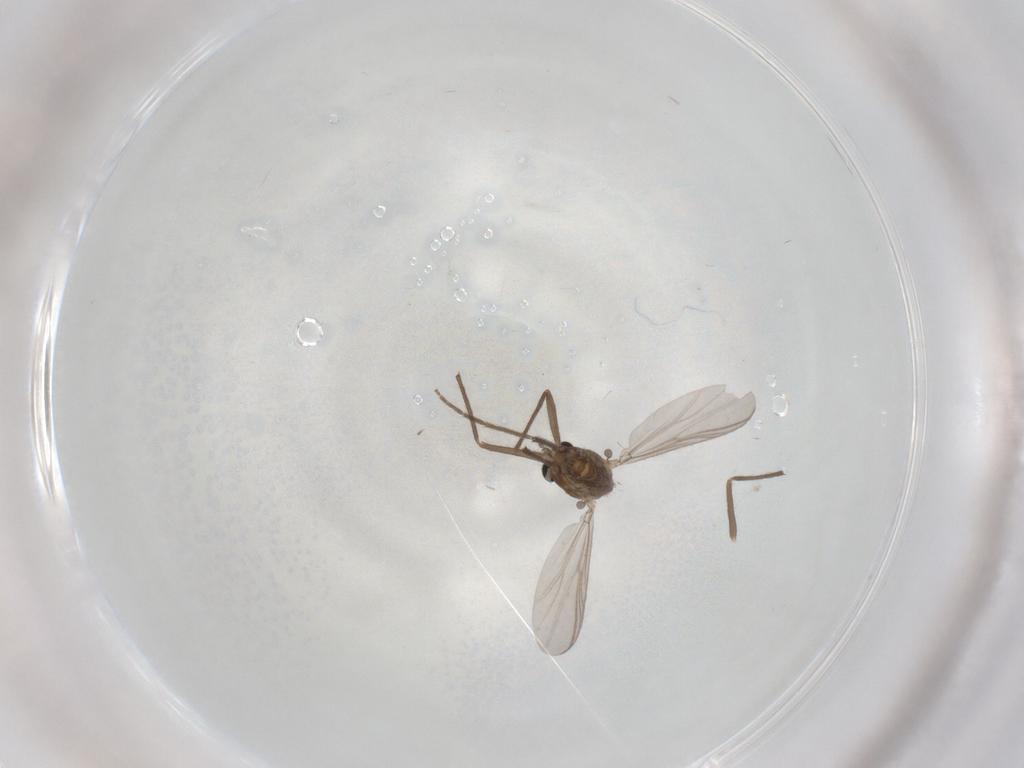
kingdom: Animalia
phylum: Arthropoda
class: Insecta
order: Diptera
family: Chironomidae
